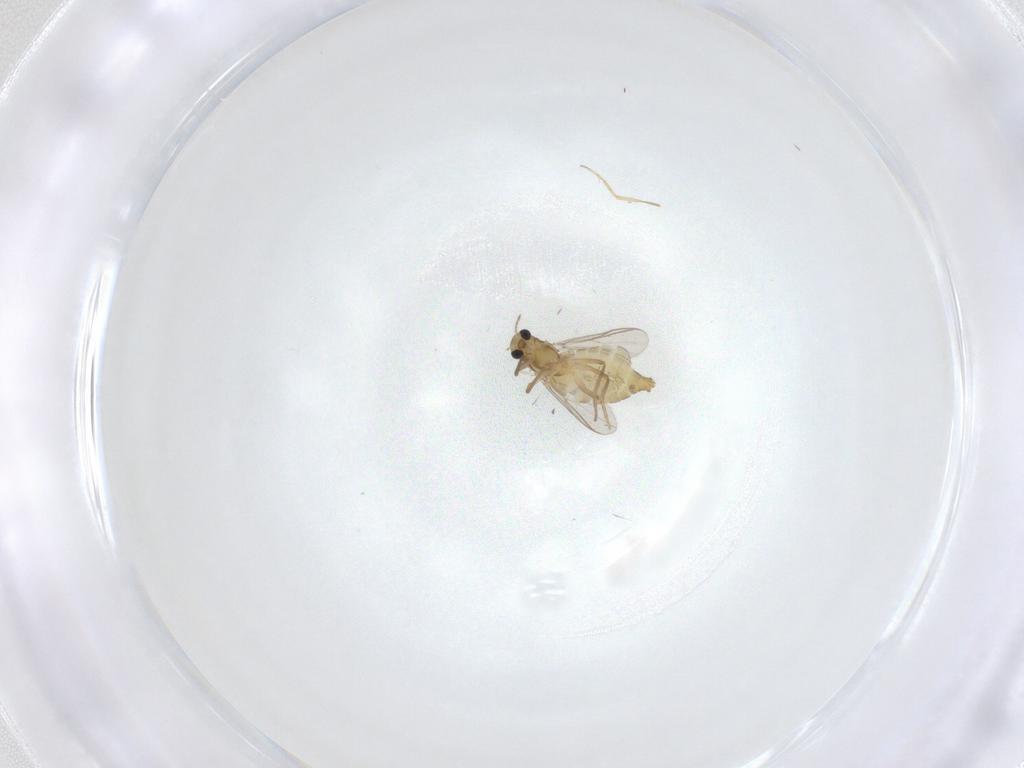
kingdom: Animalia
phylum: Arthropoda
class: Insecta
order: Diptera
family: Chironomidae
